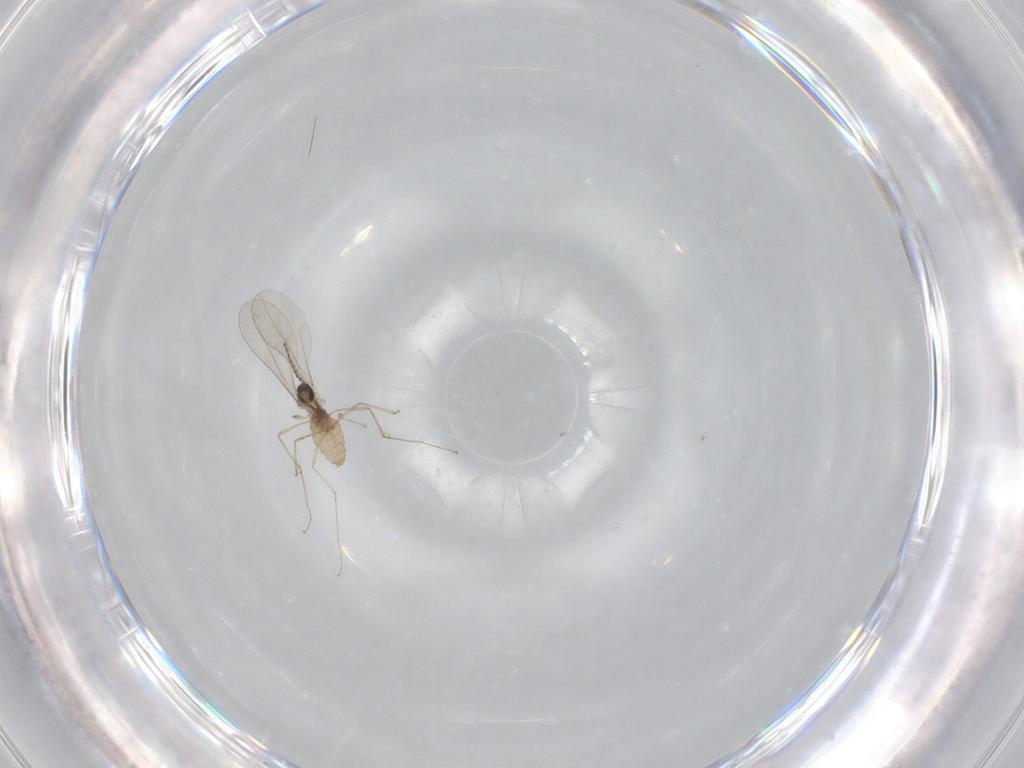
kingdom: Animalia
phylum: Arthropoda
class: Insecta
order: Diptera
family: Cecidomyiidae
